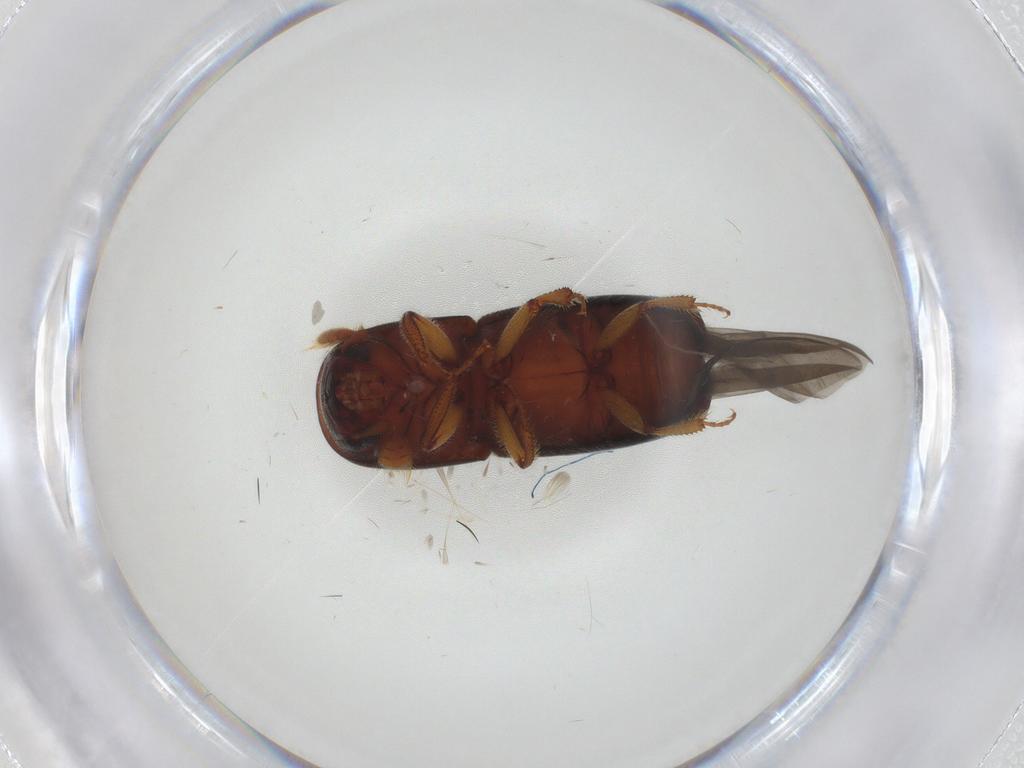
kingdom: Animalia
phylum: Arthropoda
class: Insecta
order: Coleoptera
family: Curculionidae
